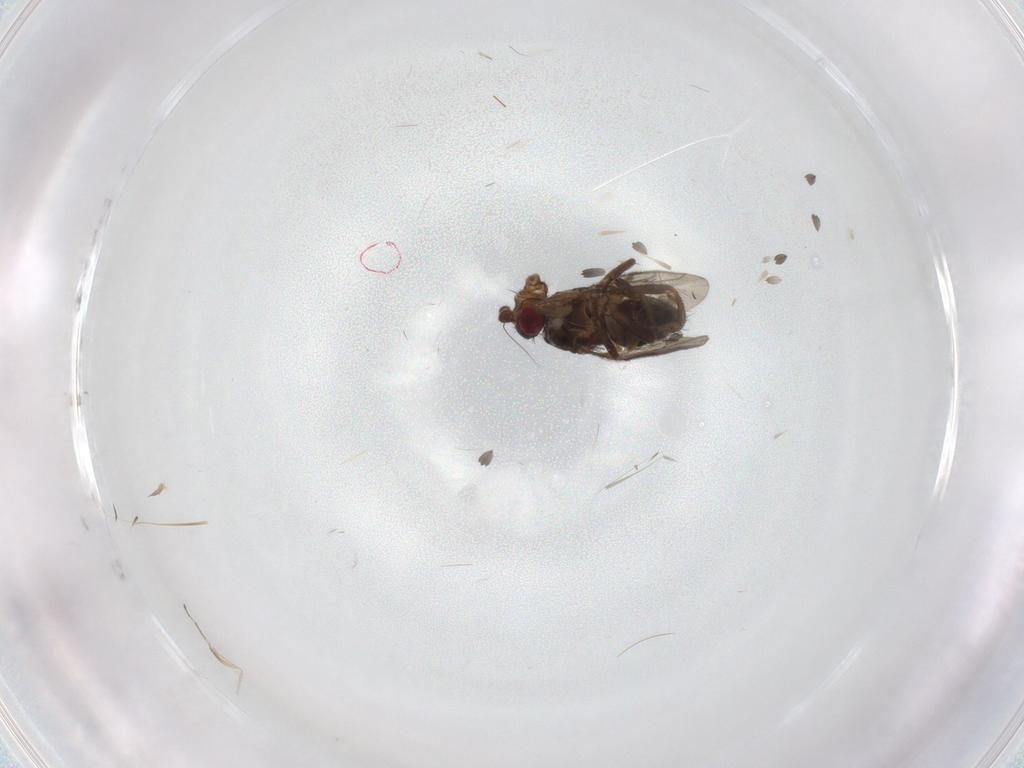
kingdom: Animalia
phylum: Arthropoda
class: Insecta
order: Diptera
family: Sphaeroceridae
